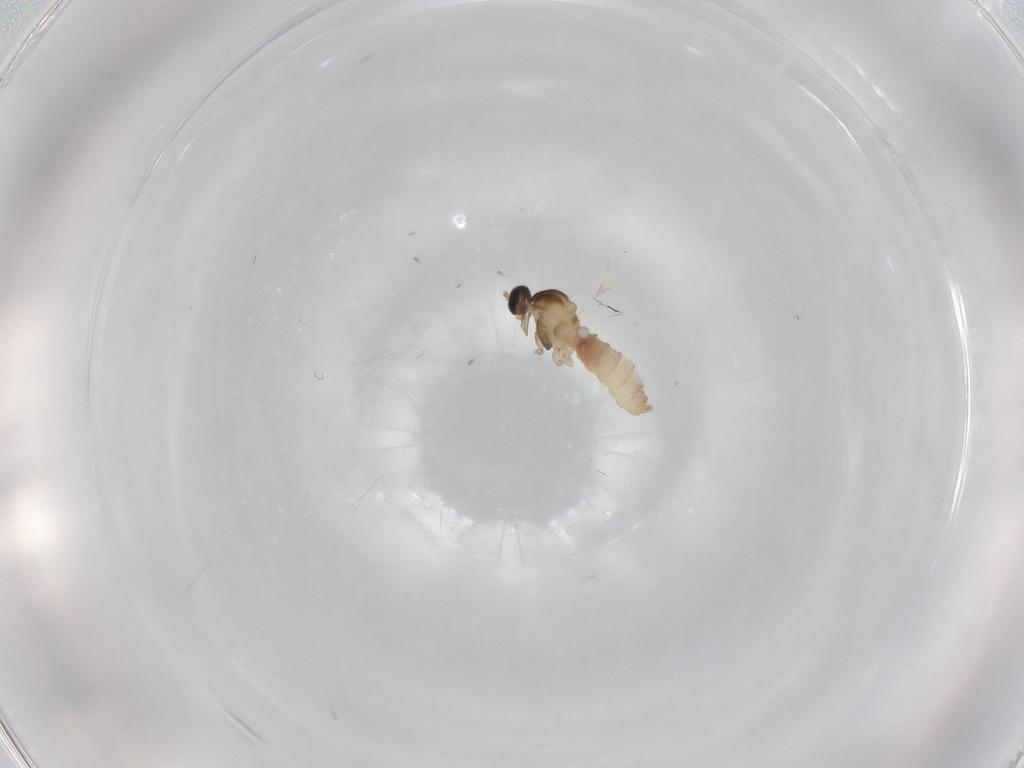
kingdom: Animalia
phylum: Arthropoda
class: Insecta
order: Diptera
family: Cecidomyiidae
